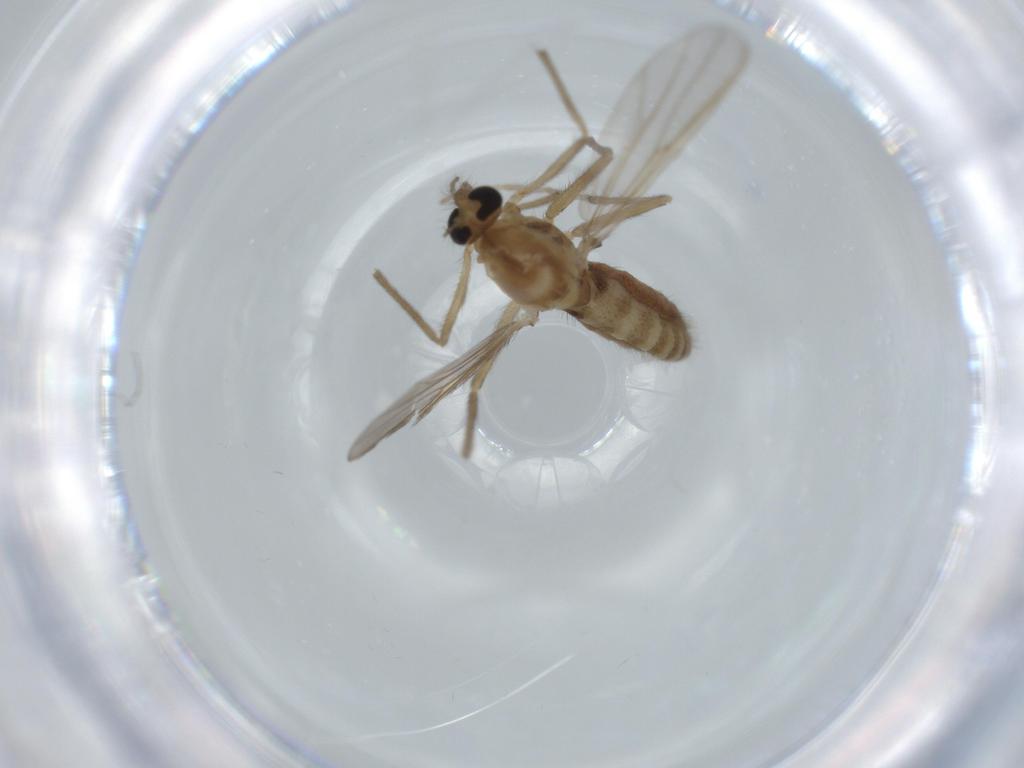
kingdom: Animalia
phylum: Arthropoda
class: Insecta
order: Diptera
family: Chironomidae
